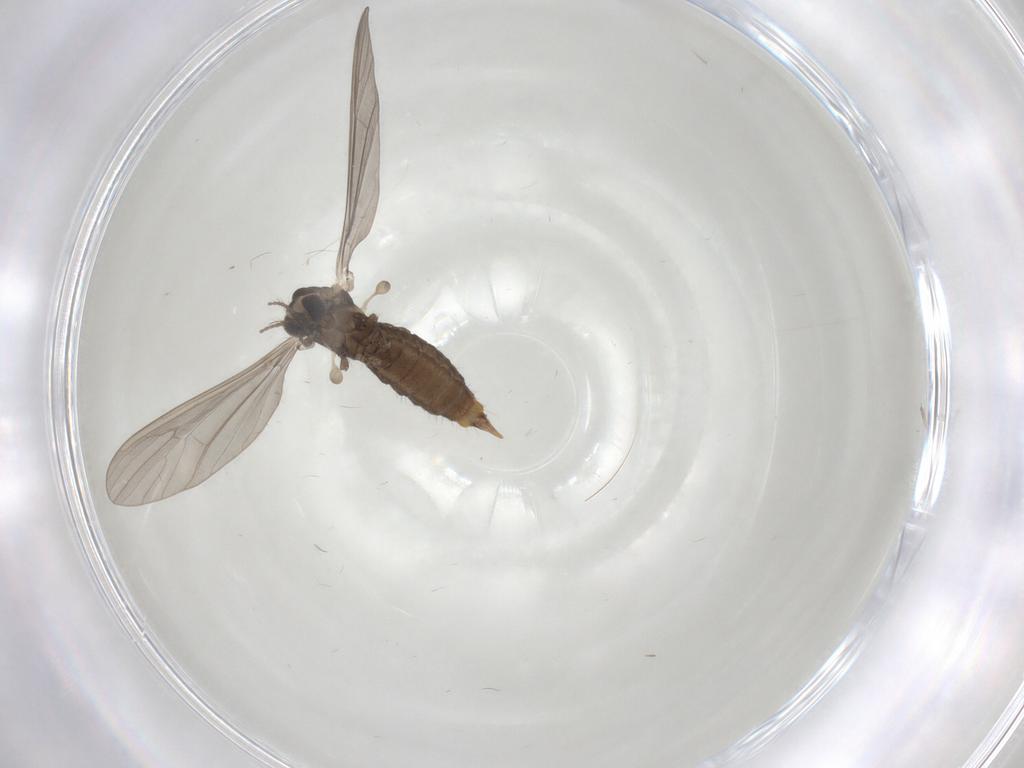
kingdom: Animalia
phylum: Arthropoda
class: Insecta
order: Diptera
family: Limoniidae
